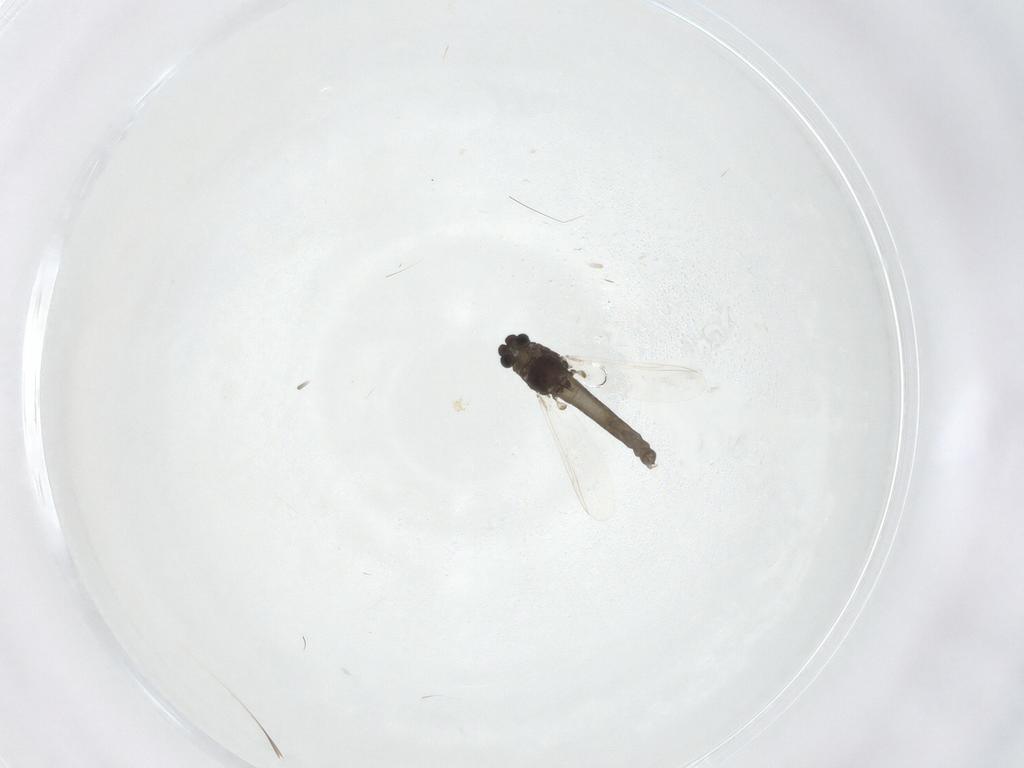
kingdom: Animalia
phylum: Arthropoda
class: Insecta
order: Diptera
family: Chironomidae
